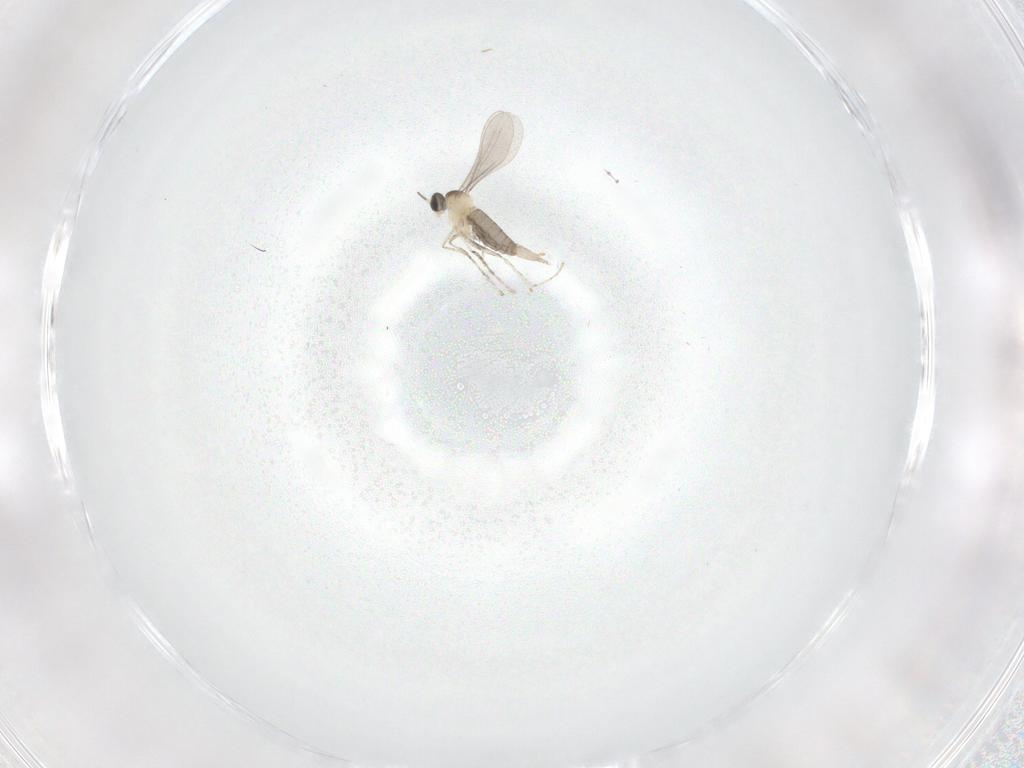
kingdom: Animalia
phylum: Arthropoda
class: Insecta
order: Diptera
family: Cecidomyiidae
